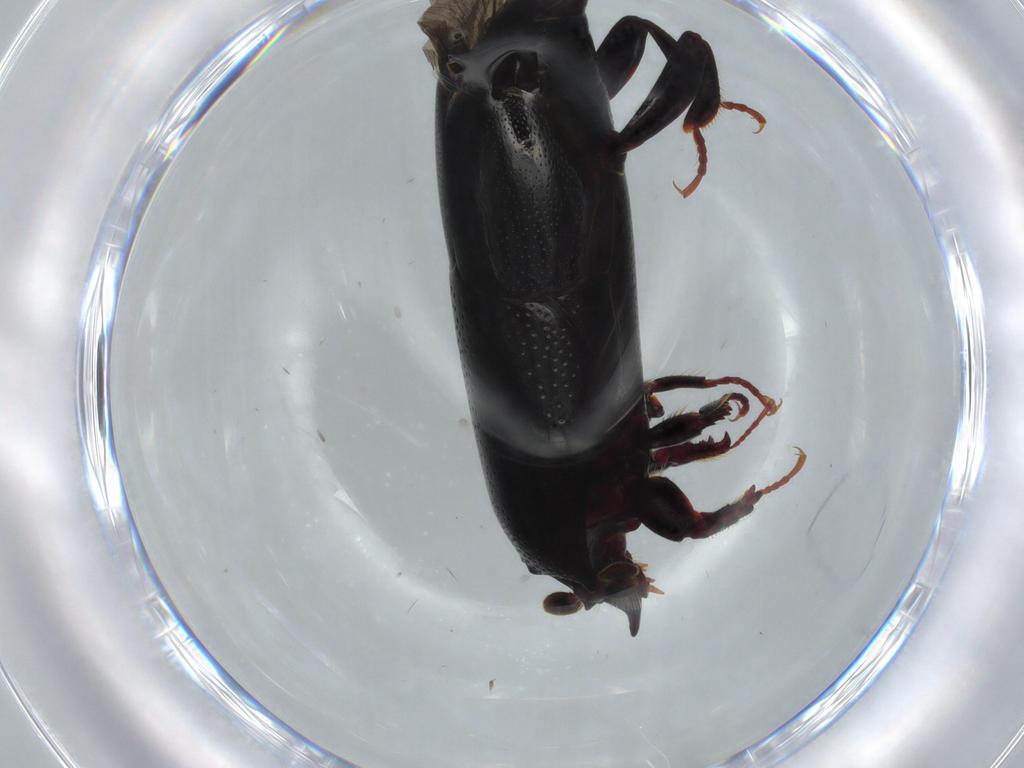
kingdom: Animalia
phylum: Arthropoda
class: Insecta
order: Coleoptera
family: Histeridae
